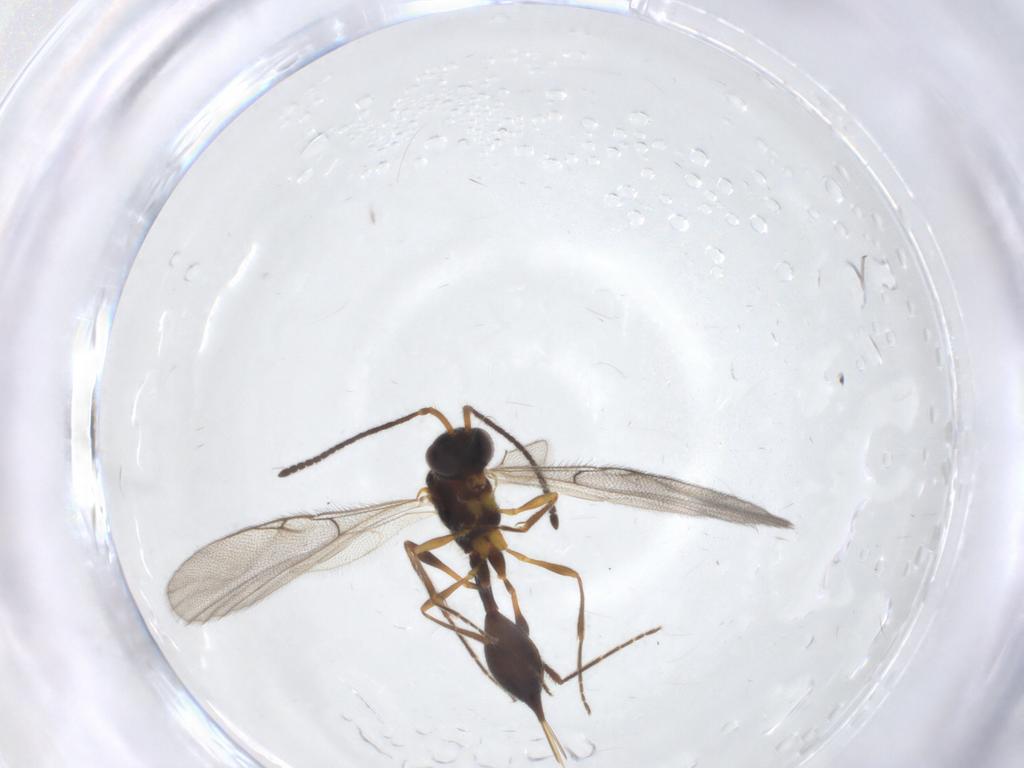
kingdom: Animalia
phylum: Arthropoda
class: Insecta
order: Hymenoptera
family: Diapriidae
